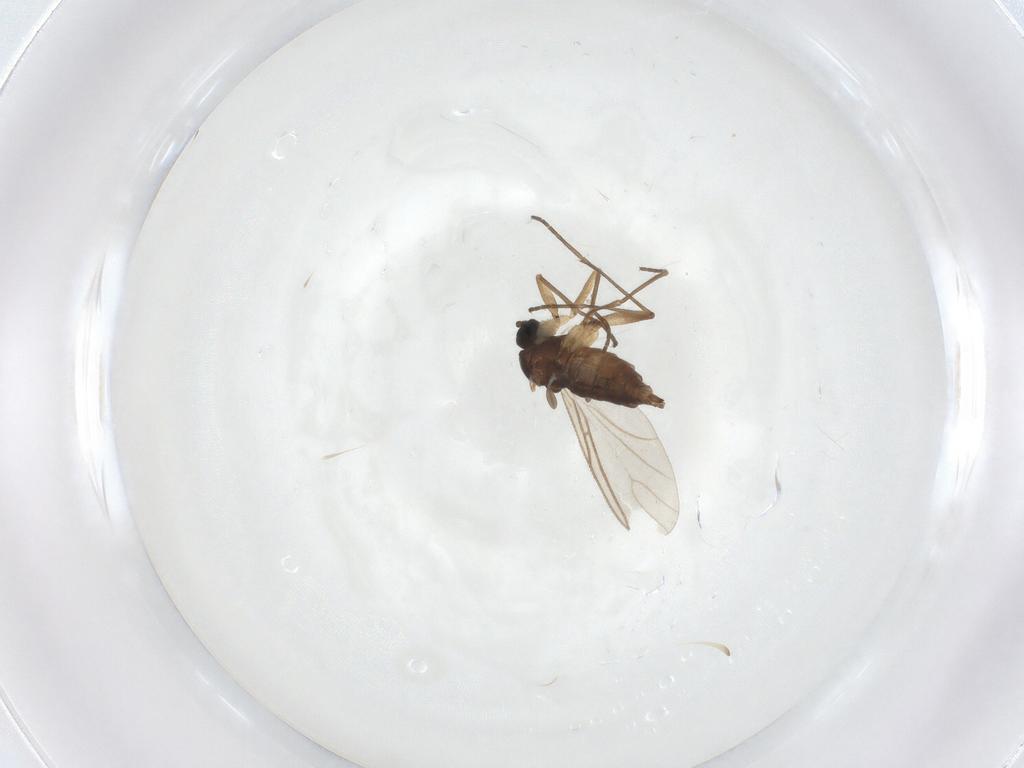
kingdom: Animalia
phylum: Arthropoda
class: Insecta
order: Diptera
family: Sciaridae
